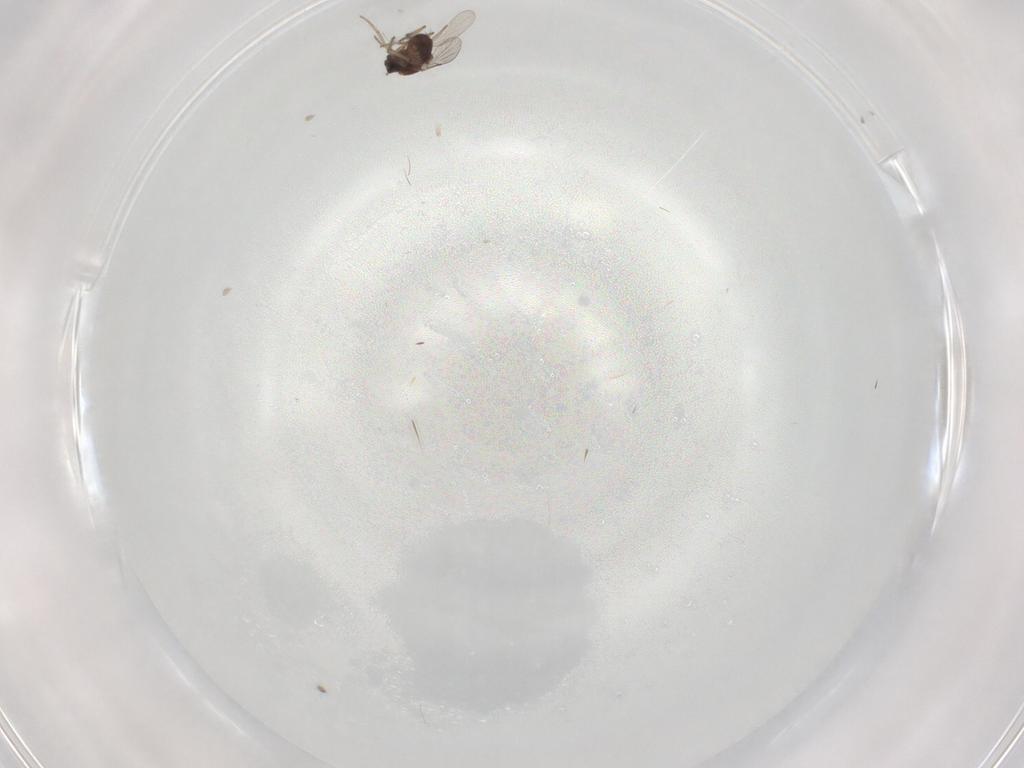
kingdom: Animalia
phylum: Arthropoda
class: Insecta
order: Diptera
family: Ceratopogonidae
